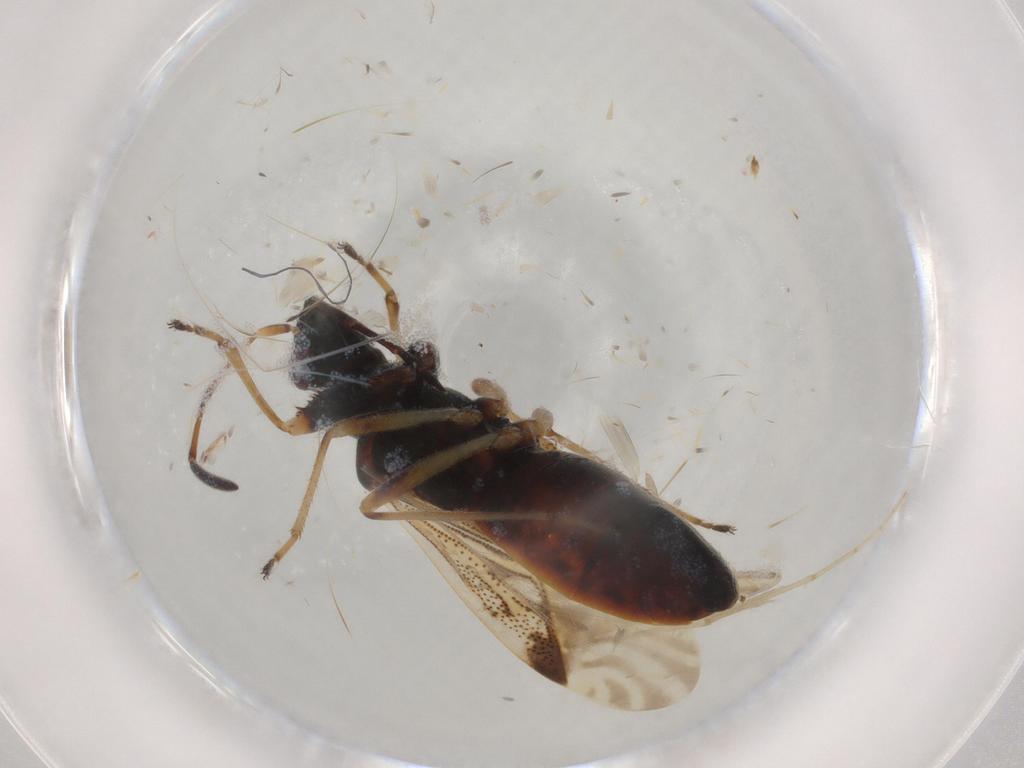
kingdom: Animalia
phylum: Arthropoda
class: Insecta
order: Hemiptera
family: Rhyparochromidae
